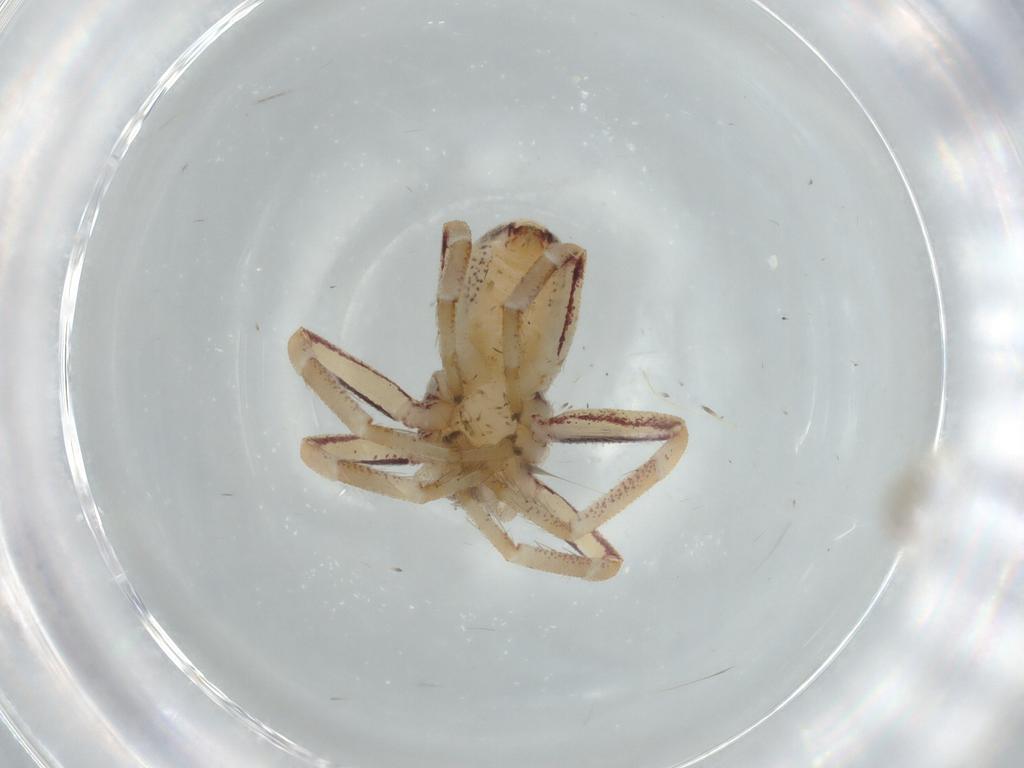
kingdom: Animalia
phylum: Arthropoda
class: Arachnida
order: Araneae
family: Philodromidae
